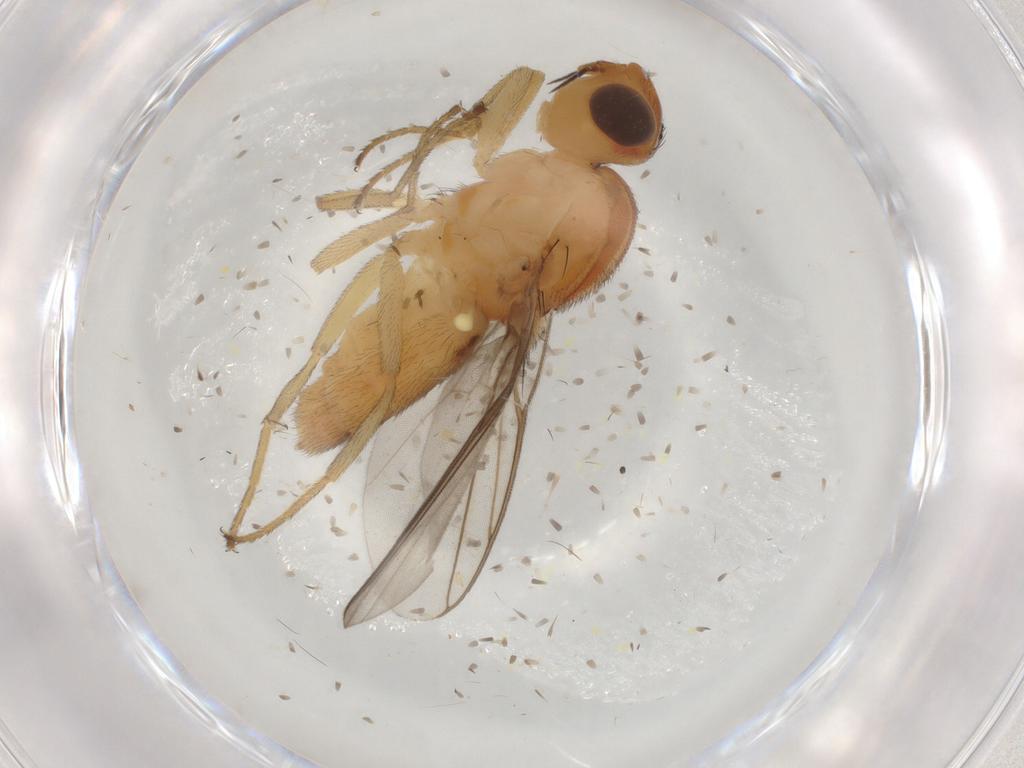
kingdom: Animalia
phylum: Arthropoda
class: Insecta
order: Diptera
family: Chloropidae
